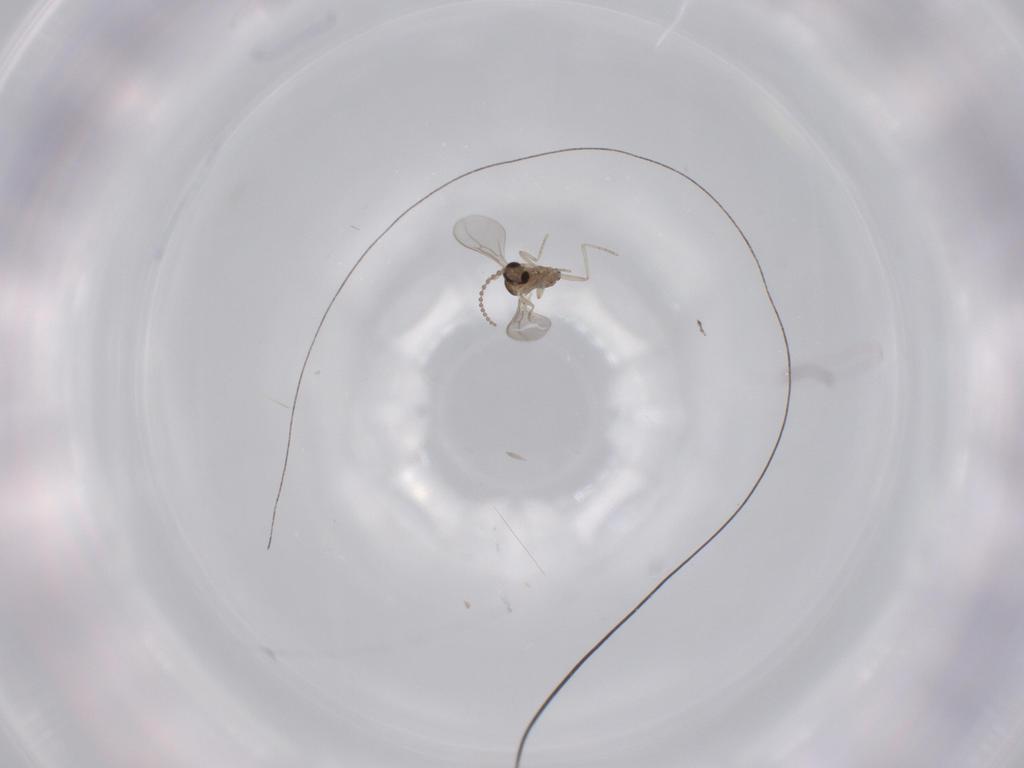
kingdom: Animalia
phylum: Arthropoda
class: Insecta
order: Diptera
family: Cecidomyiidae
